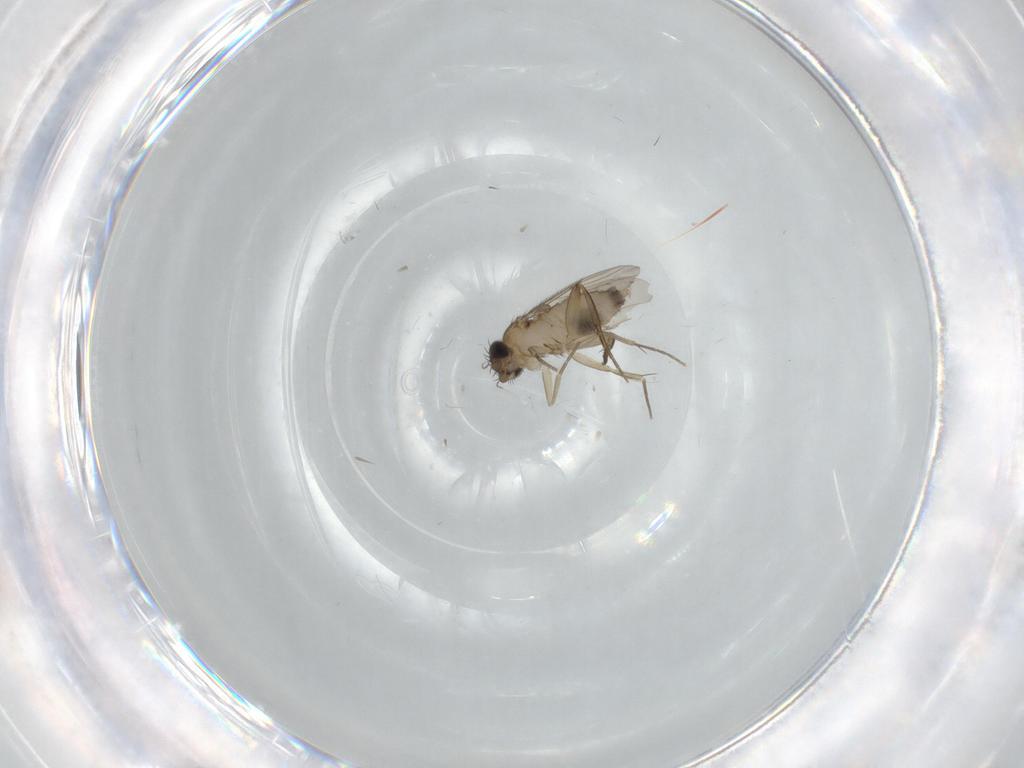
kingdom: Animalia
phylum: Arthropoda
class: Insecta
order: Diptera
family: Phoridae
